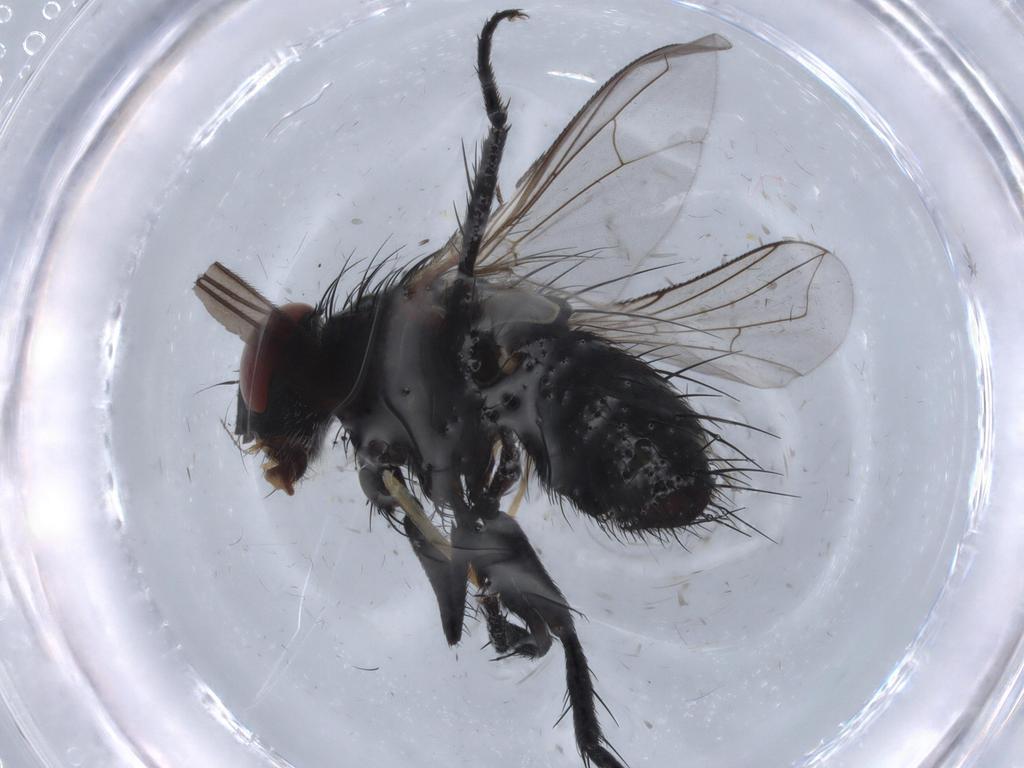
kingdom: Animalia
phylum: Arthropoda
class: Insecta
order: Diptera
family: Tachinidae
